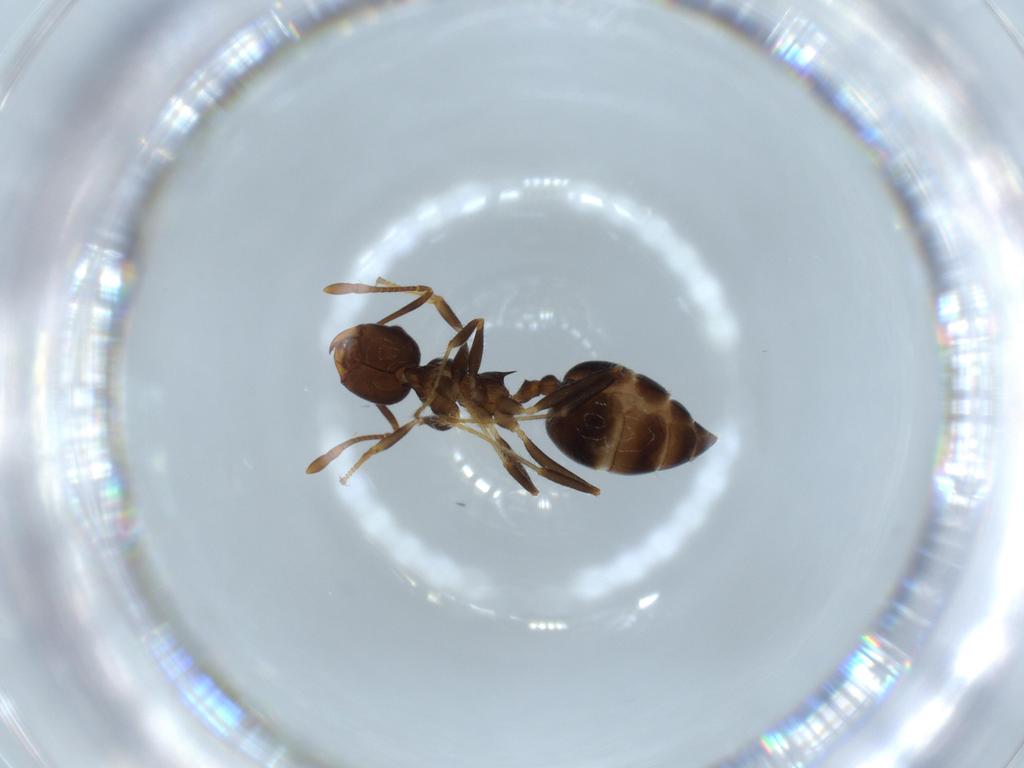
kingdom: Animalia
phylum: Arthropoda
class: Insecta
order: Hymenoptera
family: Formicidae
